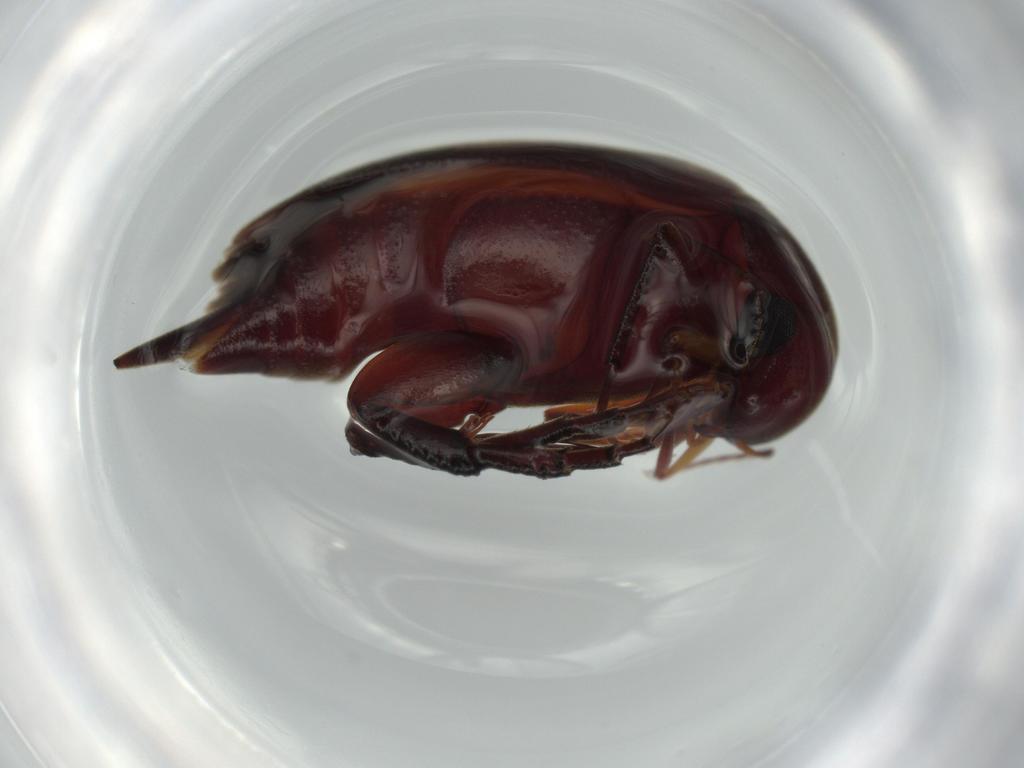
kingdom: Animalia
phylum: Arthropoda
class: Insecta
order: Coleoptera
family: Mordellidae
